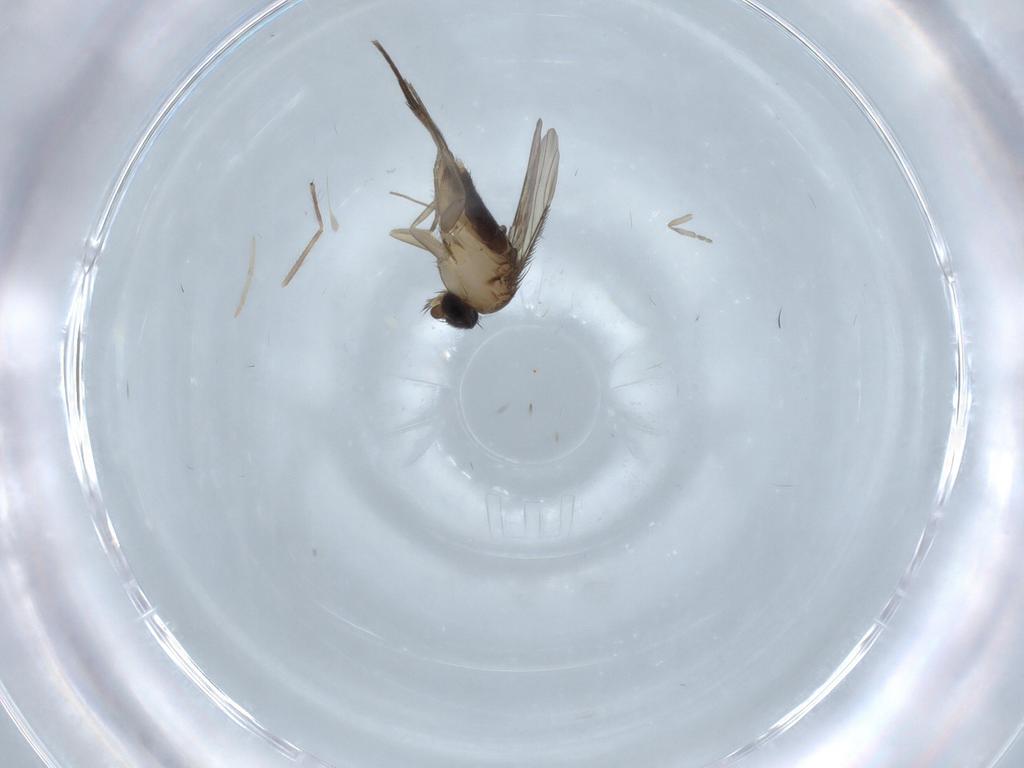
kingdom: Animalia
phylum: Arthropoda
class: Insecta
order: Diptera
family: Phoridae
